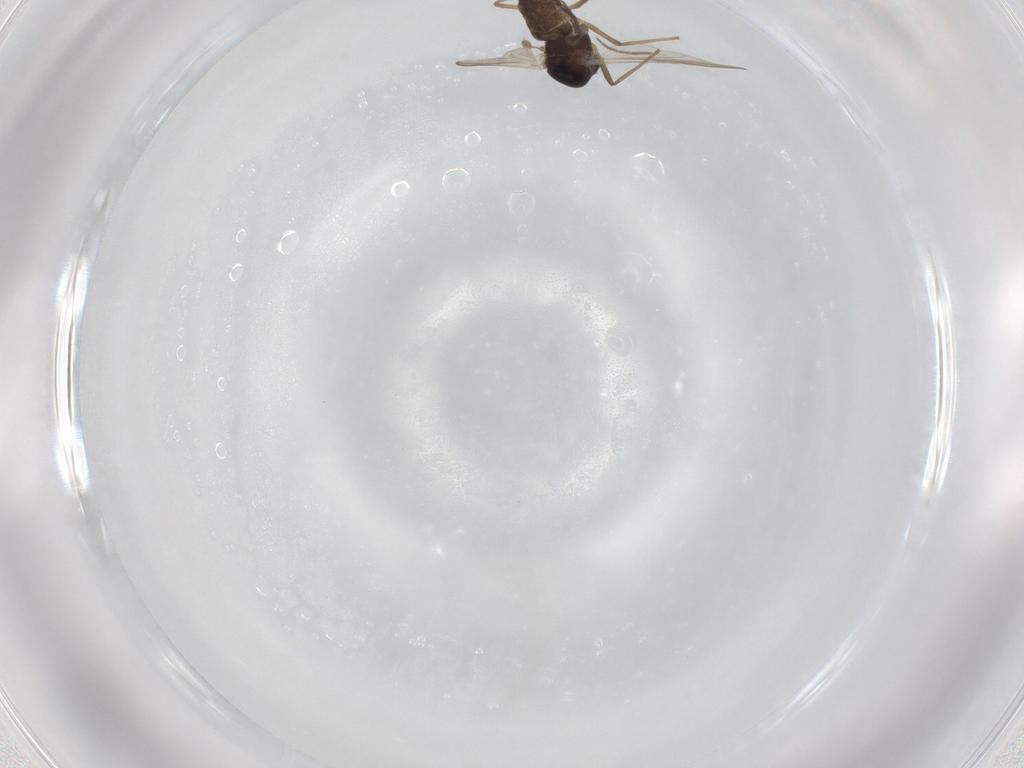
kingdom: Animalia
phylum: Arthropoda
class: Insecta
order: Diptera
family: Chironomidae
